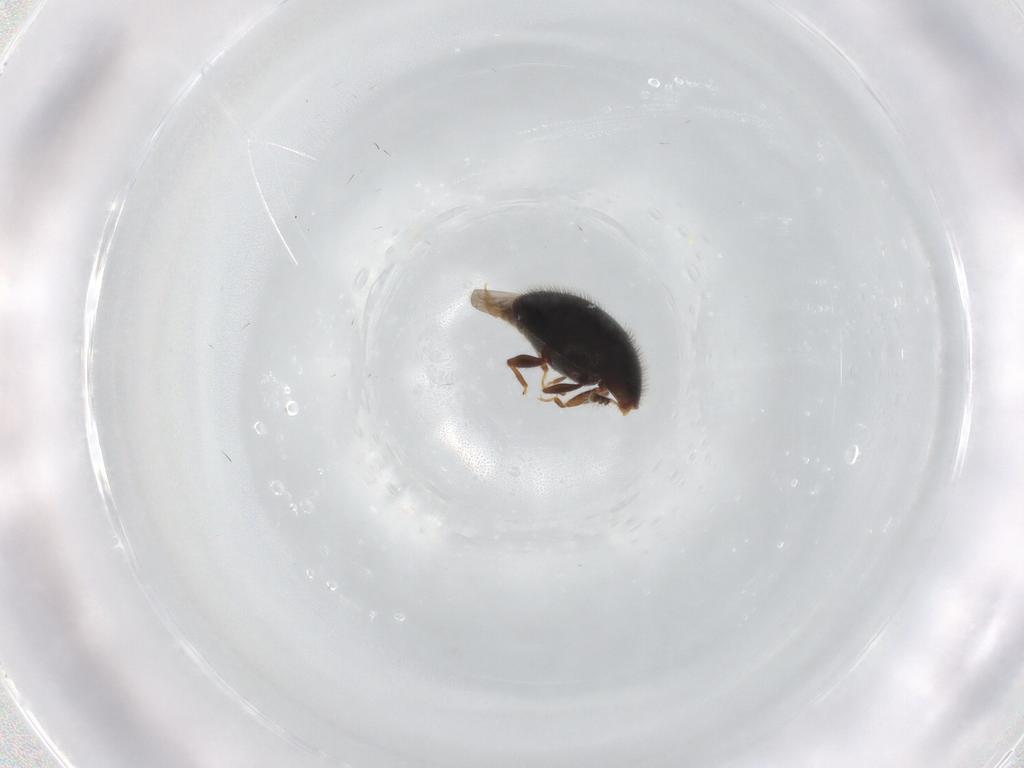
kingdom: Animalia
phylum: Arthropoda
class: Insecta
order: Coleoptera
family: Corylophidae
